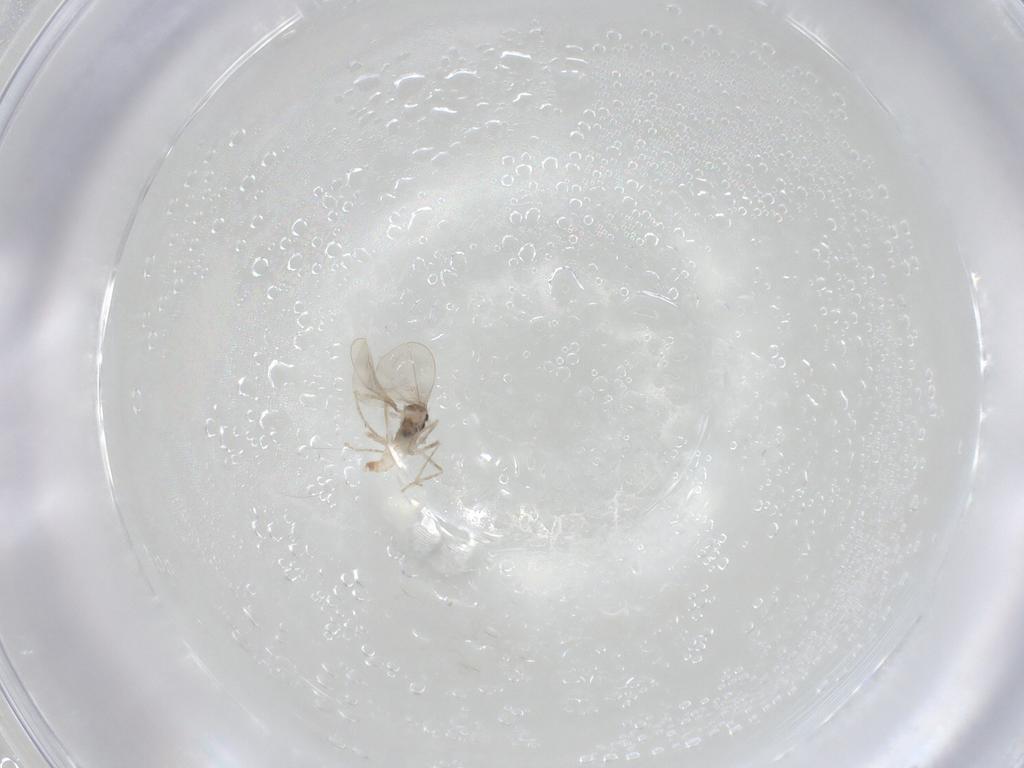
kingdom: Animalia
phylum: Arthropoda
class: Insecta
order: Diptera
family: Cecidomyiidae
